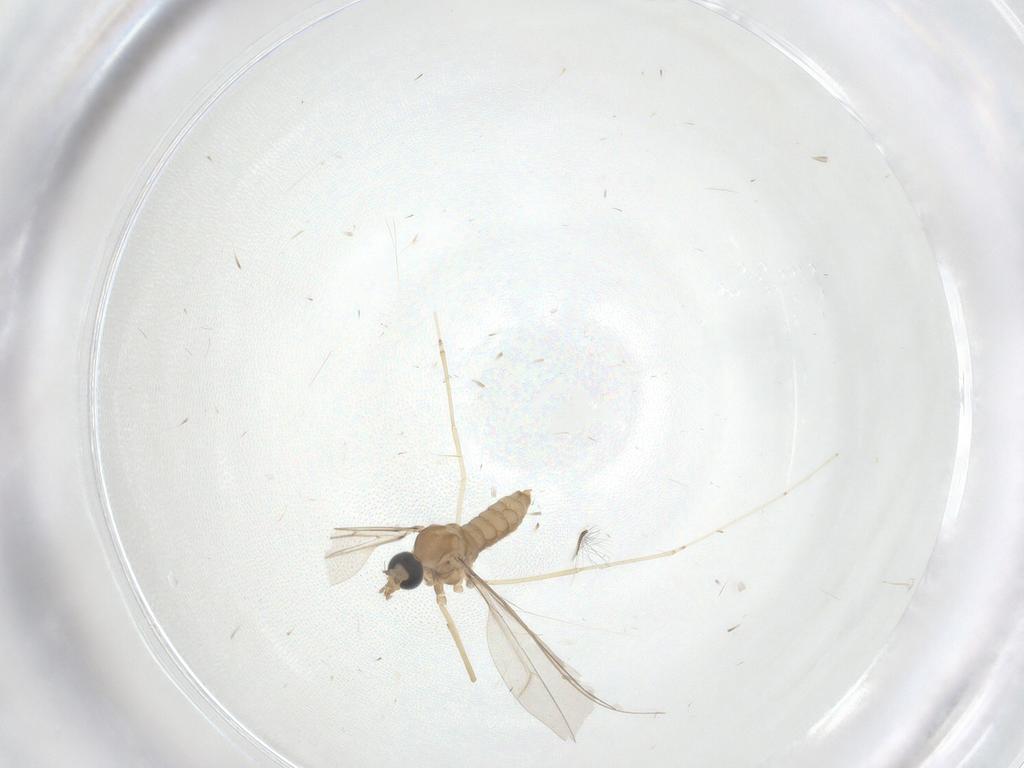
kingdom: Animalia
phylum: Arthropoda
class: Insecta
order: Diptera
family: Cecidomyiidae
